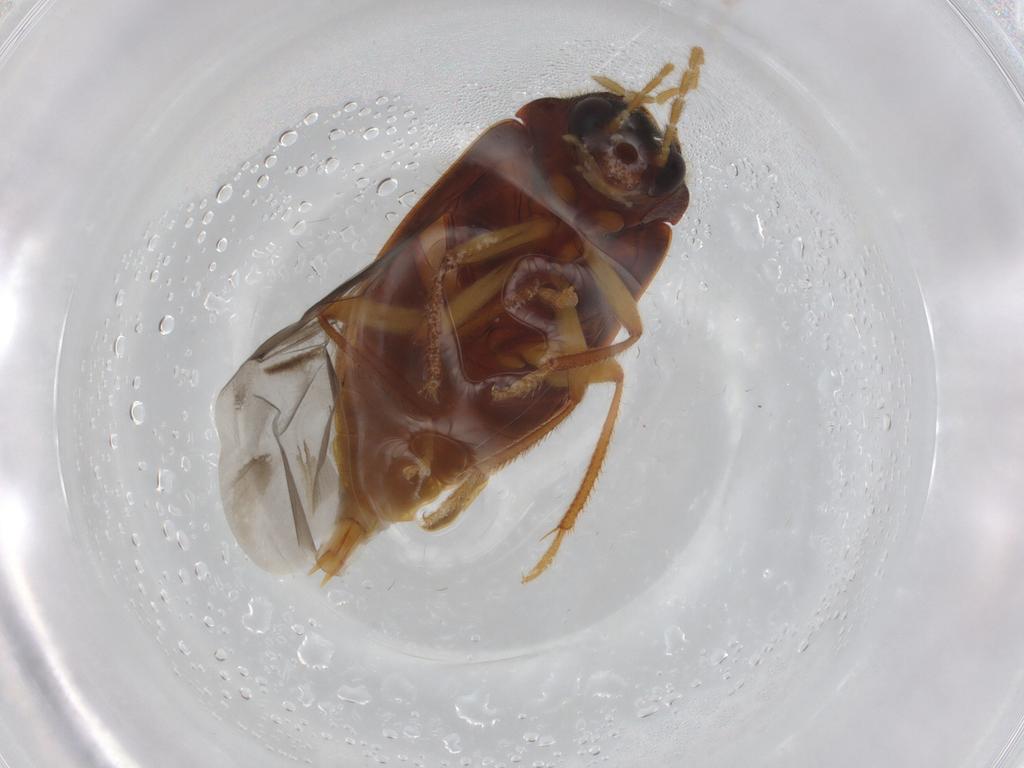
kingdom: Animalia
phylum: Arthropoda
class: Insecta
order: Coleoptera
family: Ptilodactylidae
